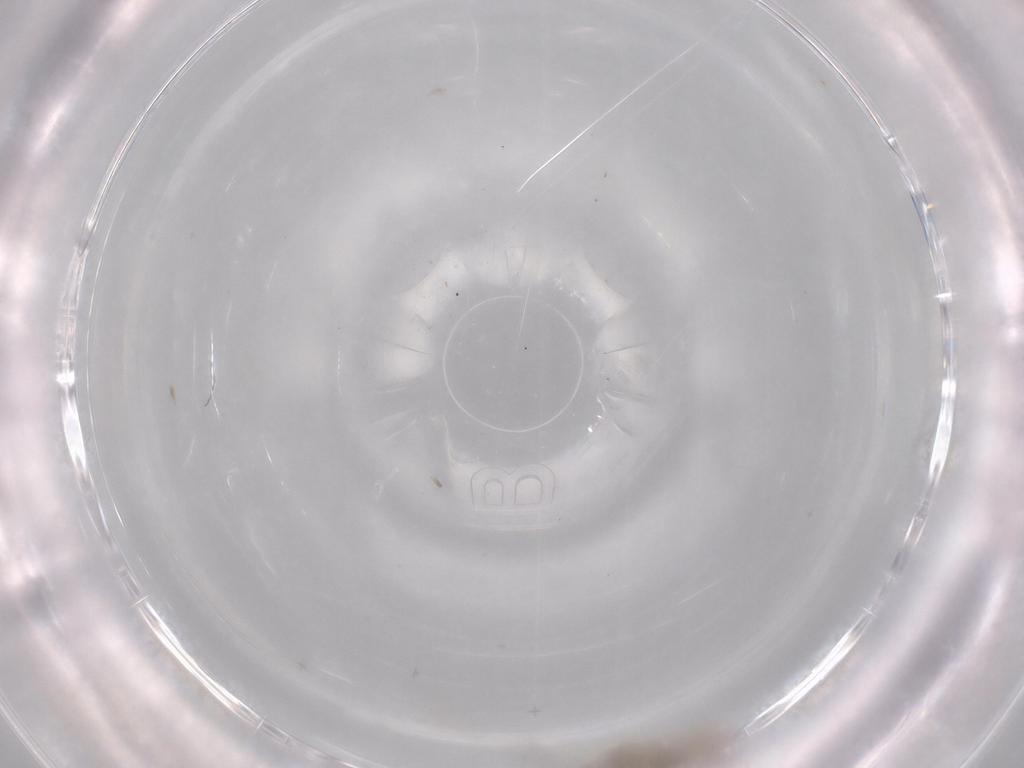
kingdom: Animalia
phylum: Arthropoda
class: Insecta
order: Diptera
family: Cecidomyiidae
